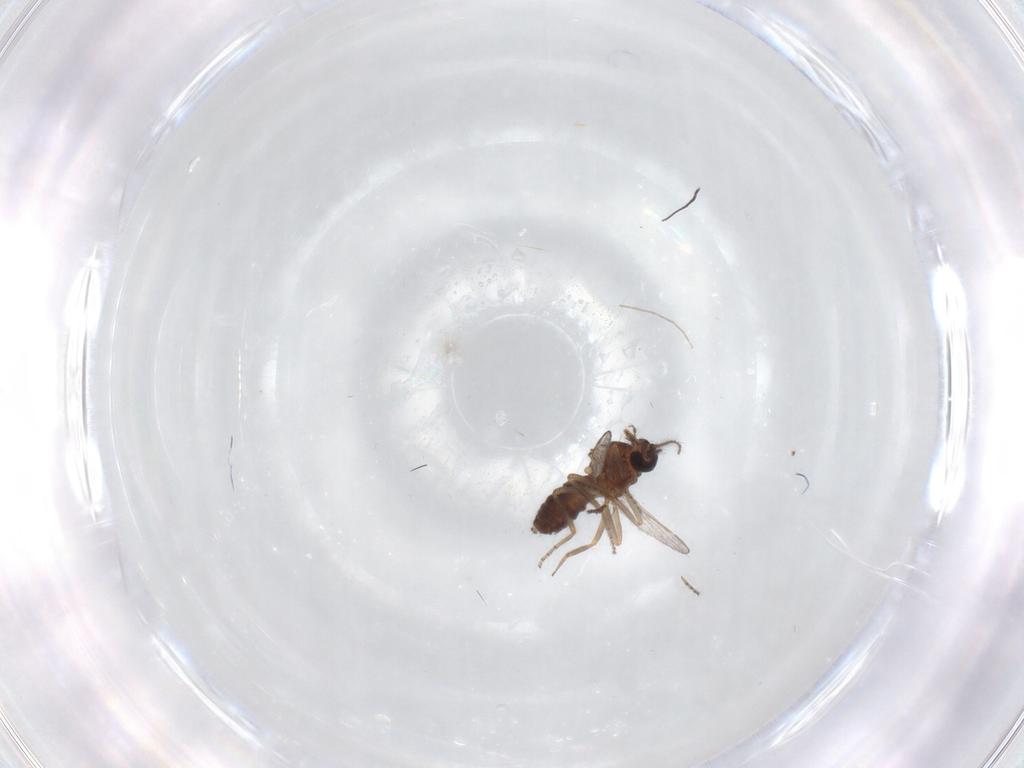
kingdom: Animalia
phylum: Arthropoda
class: Insecta
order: Diptera
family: Ceratopogonidae
